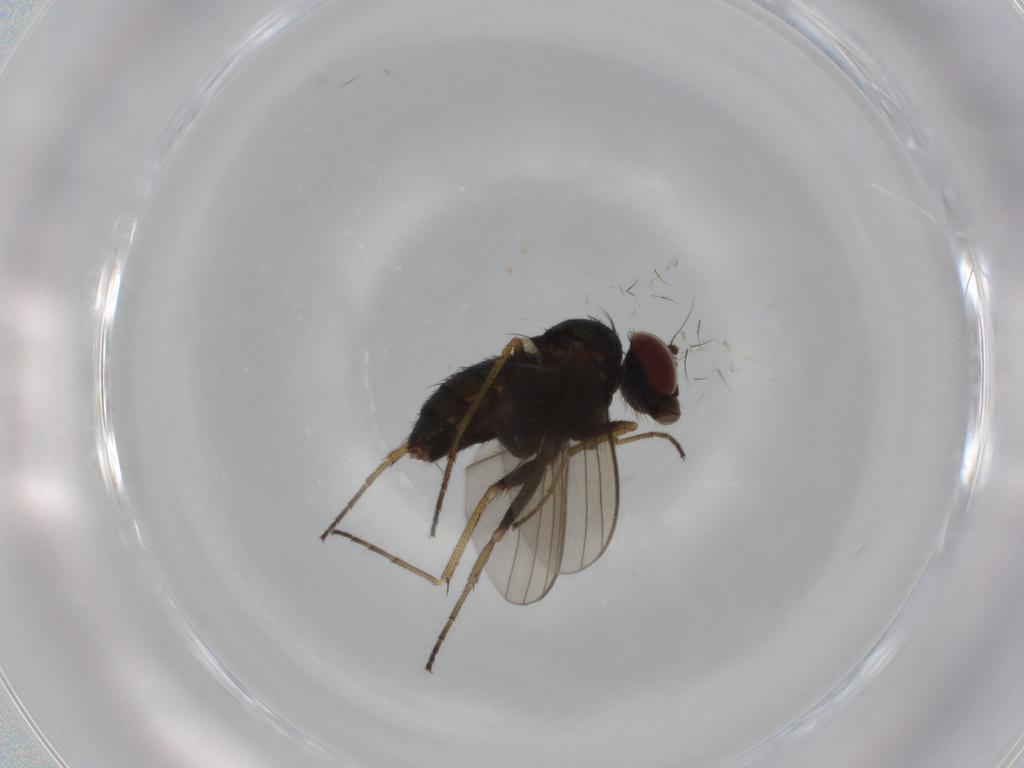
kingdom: Animalia
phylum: Arthropoda
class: Insecta
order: Diptera
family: Dolichopodidae
